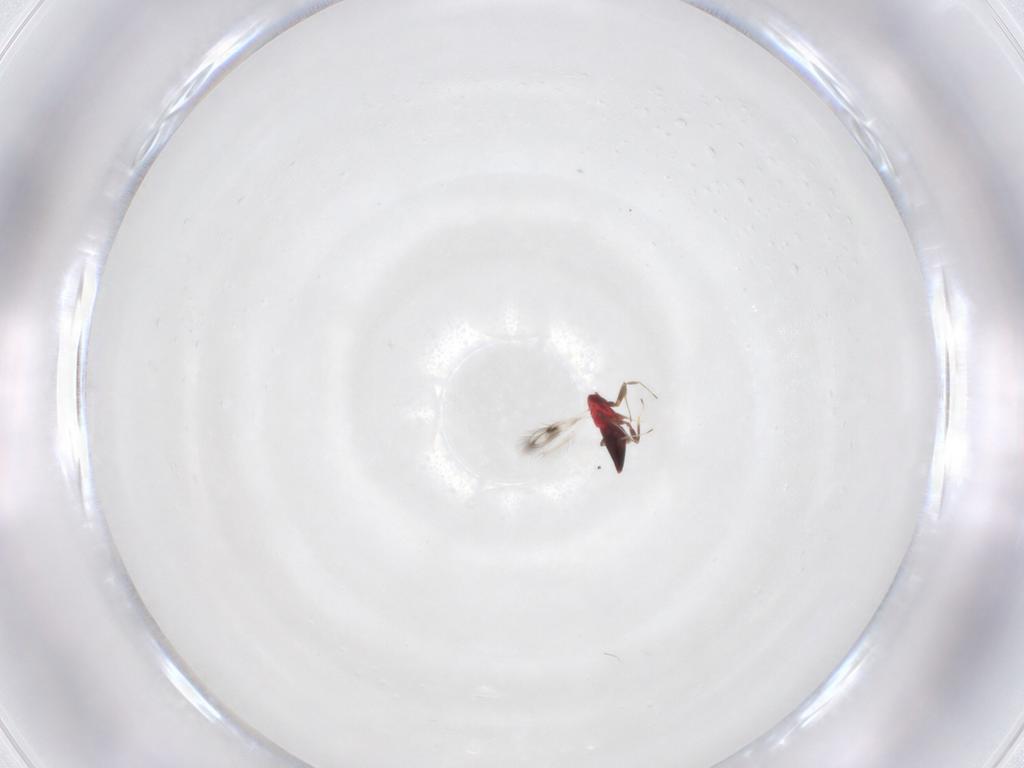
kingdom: Animalia
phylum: Arthropoda
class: Insecta
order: Hymenoptera
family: Trichogrammatidae
